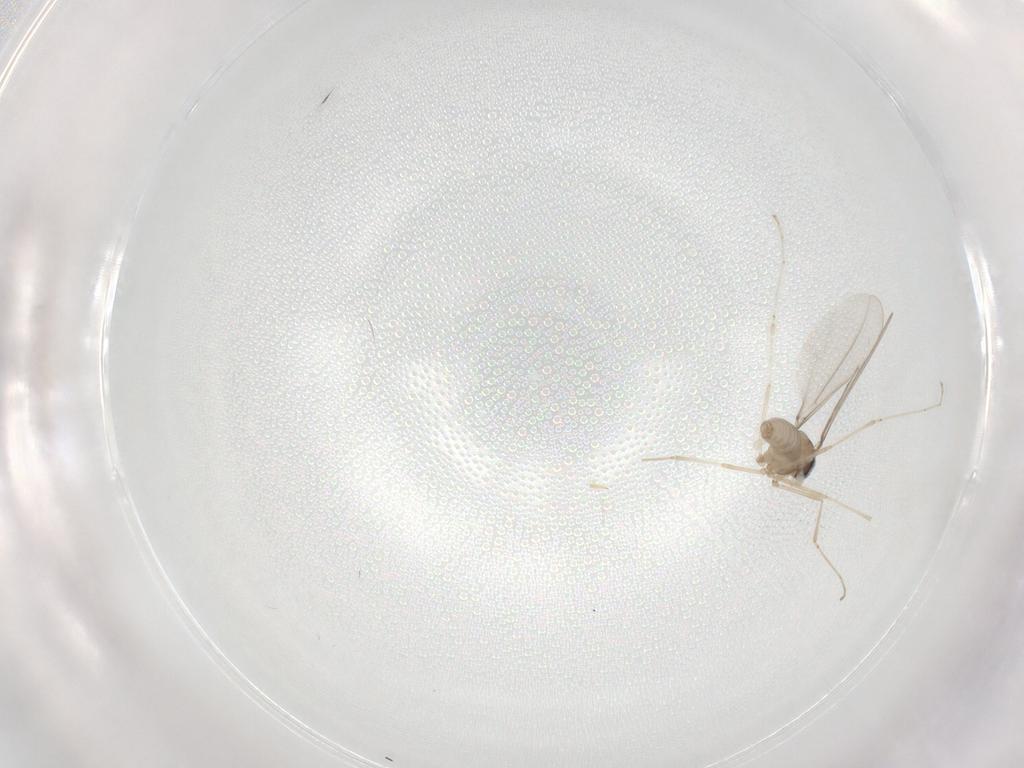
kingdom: Animalia
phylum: Arthropoda
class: Insecta
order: Diptera
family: Cecidomyiidae
